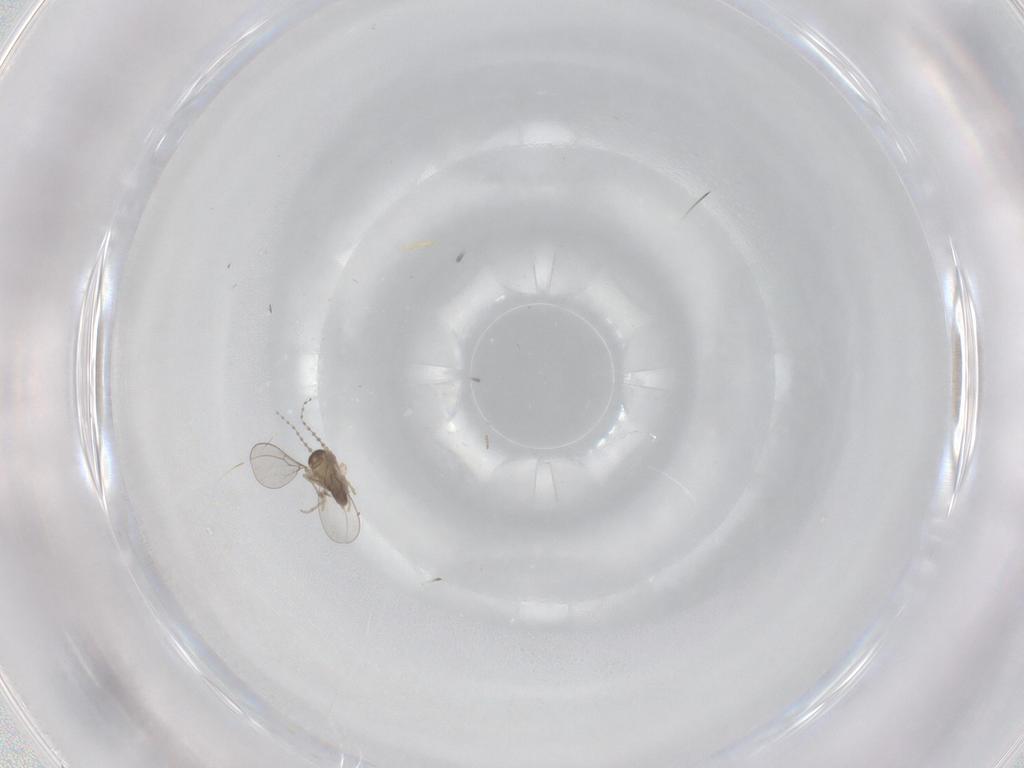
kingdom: Animalia
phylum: Arthropoda
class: Insecta
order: Diptera
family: Cecidomyiidae
